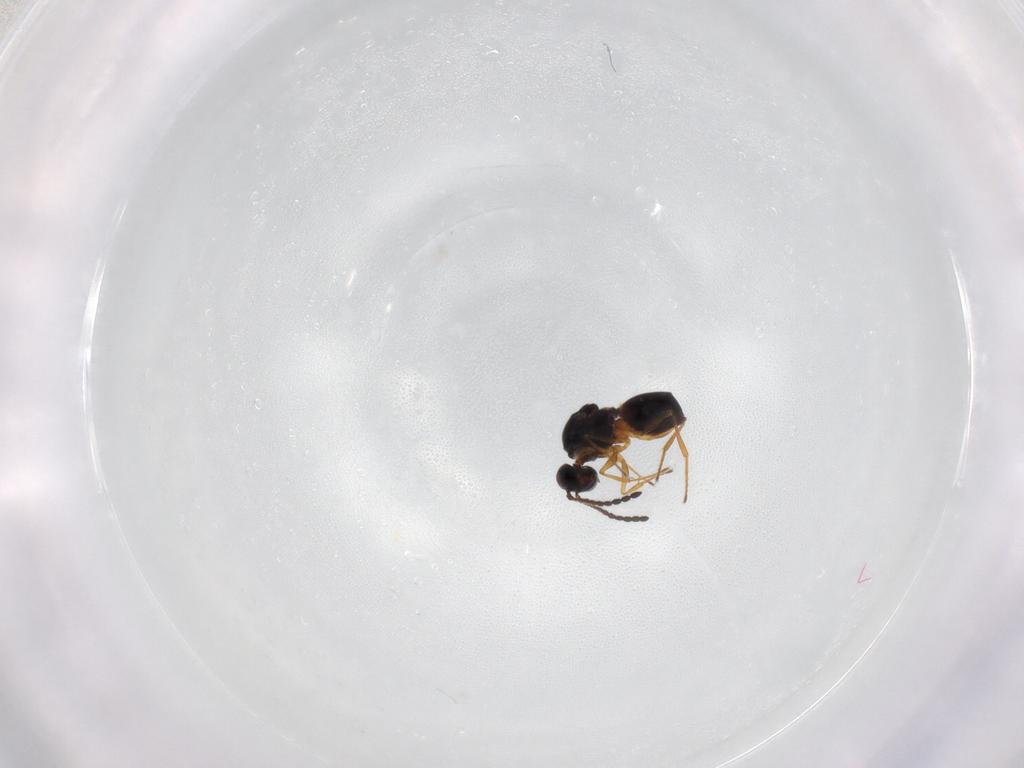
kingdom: Animalia
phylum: Arthropoda
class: Insecta
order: Hymenoptera
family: Figitidae
